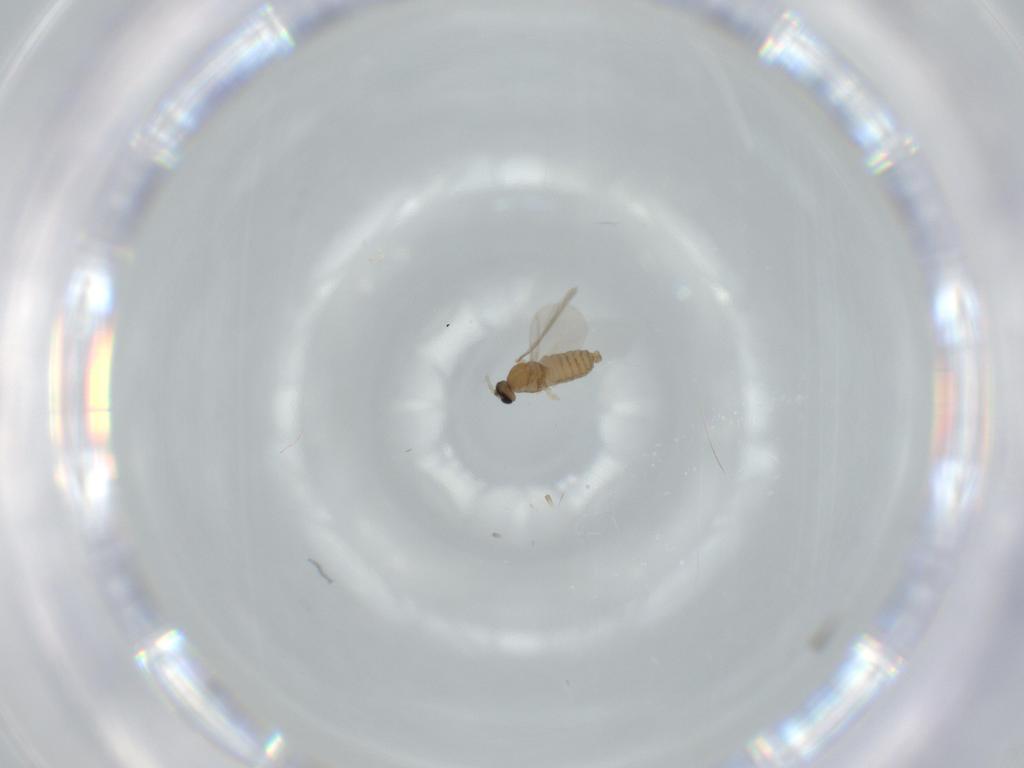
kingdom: Animalia
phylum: Arthropoda
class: Insecta
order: Diptera
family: Cecidomyiidae
